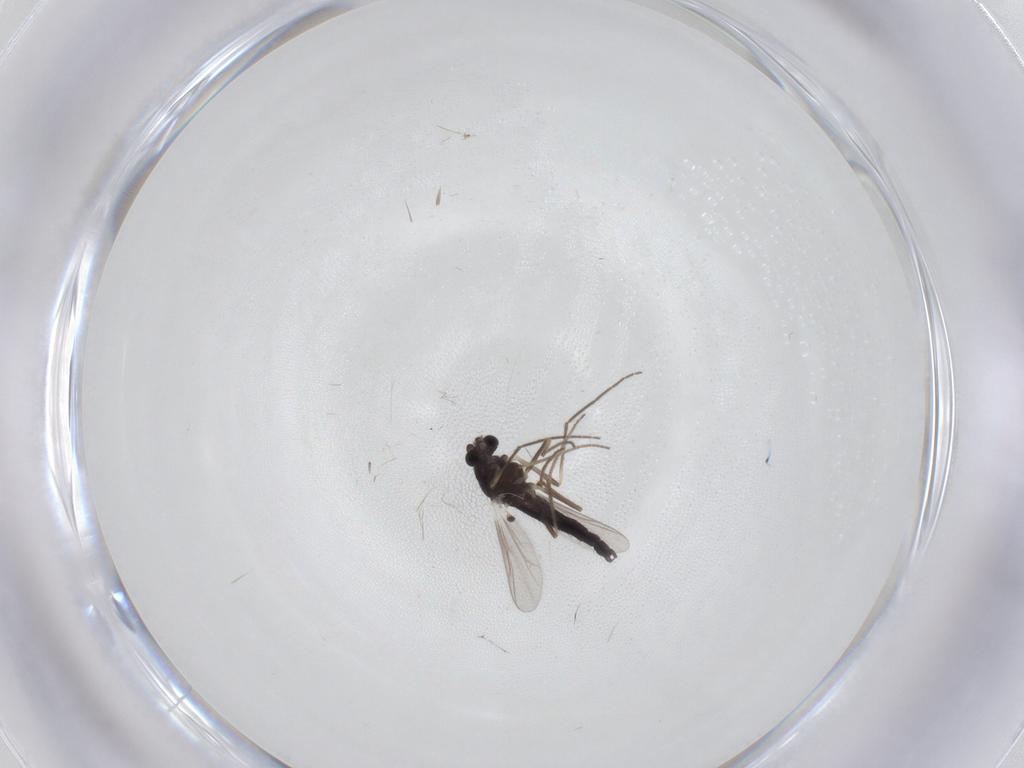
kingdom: Animalia
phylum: Arthropoda
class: Insecta
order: Diptera
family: Chironomidae
